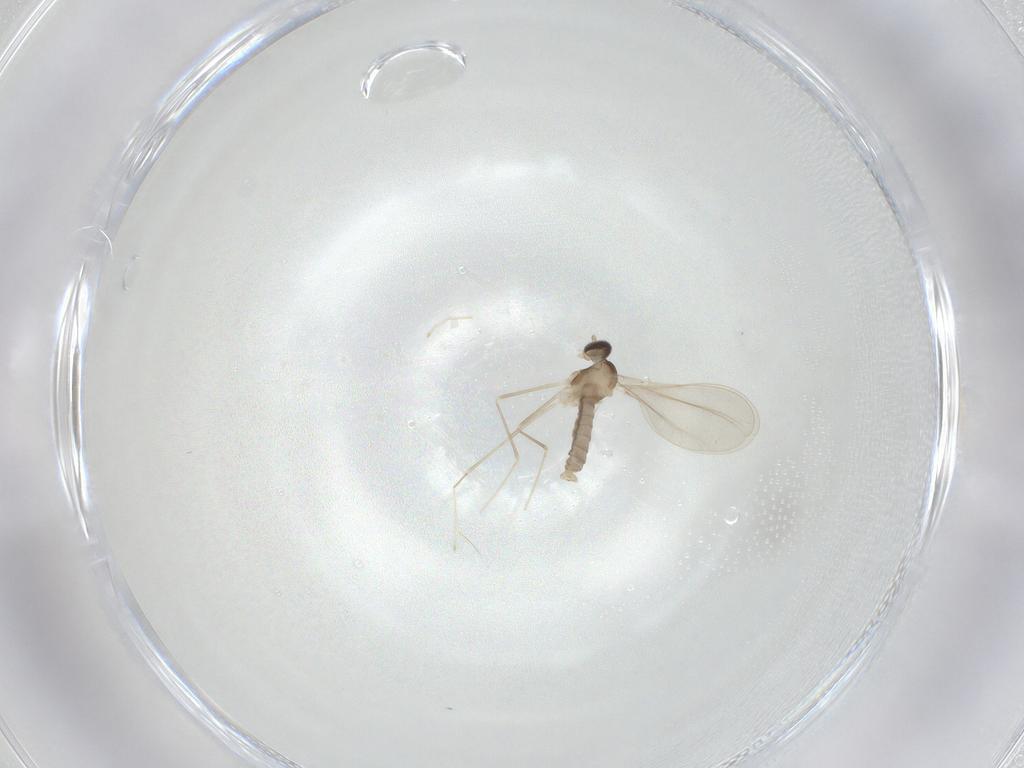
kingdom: Animalia
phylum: Arthropoda
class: Insecta
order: Diptera
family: Cecidomyiidae
